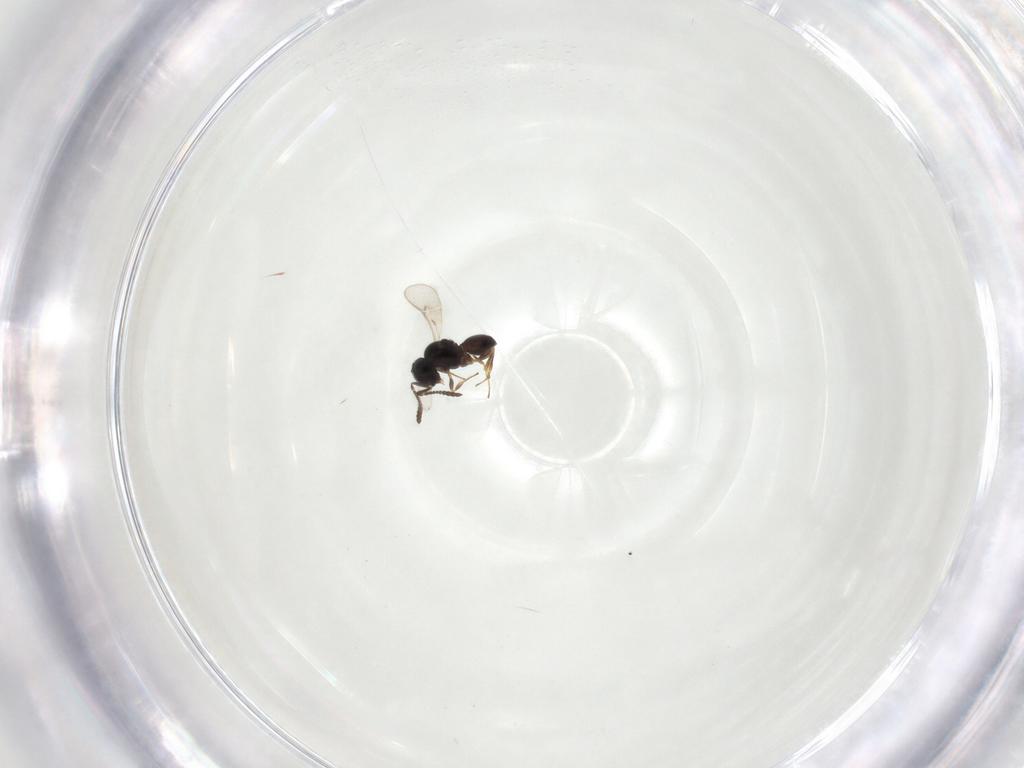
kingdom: Animalia
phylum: Arthropoda
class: Insecta
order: Hymenoptera
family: Scelionidae
